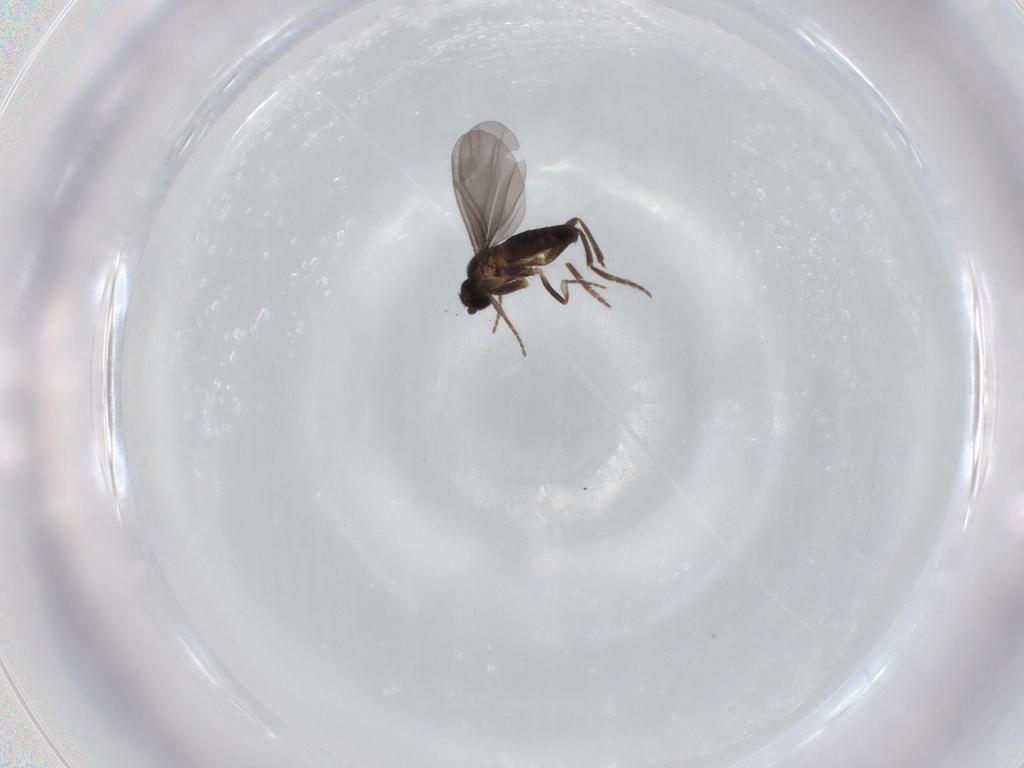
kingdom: Animalia
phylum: Arthropoda
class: Insecta
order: Diptera
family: Phoridae
